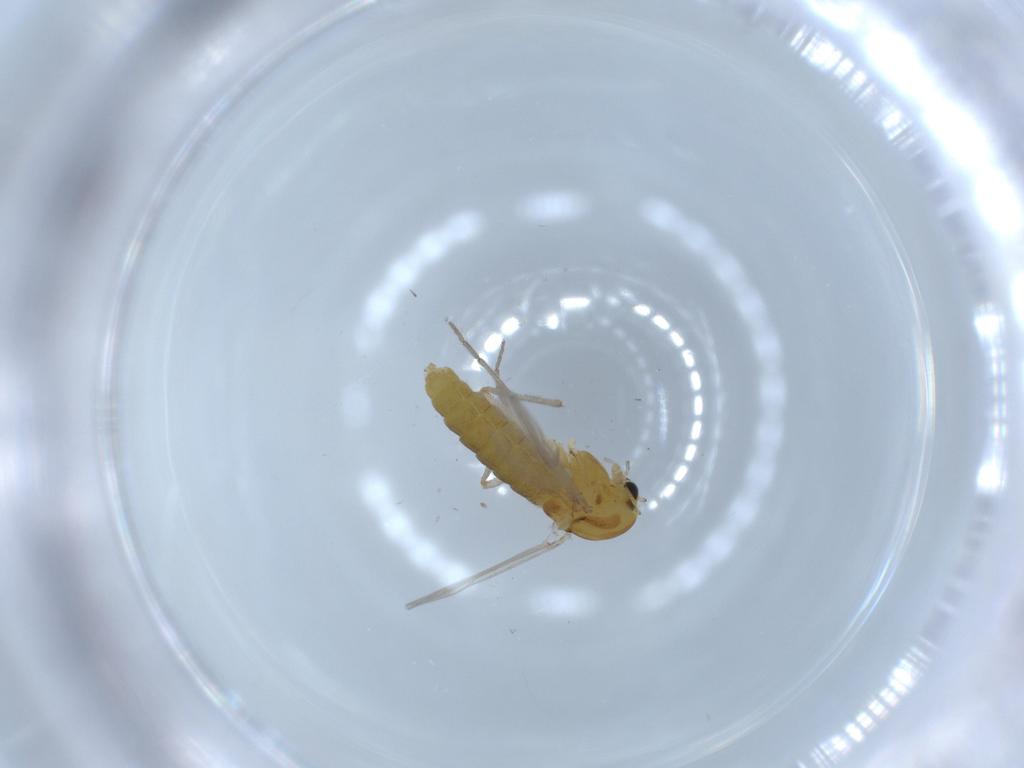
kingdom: Animalia
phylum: Arthropoda
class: Insecta
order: Diptera
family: Chironomidae
